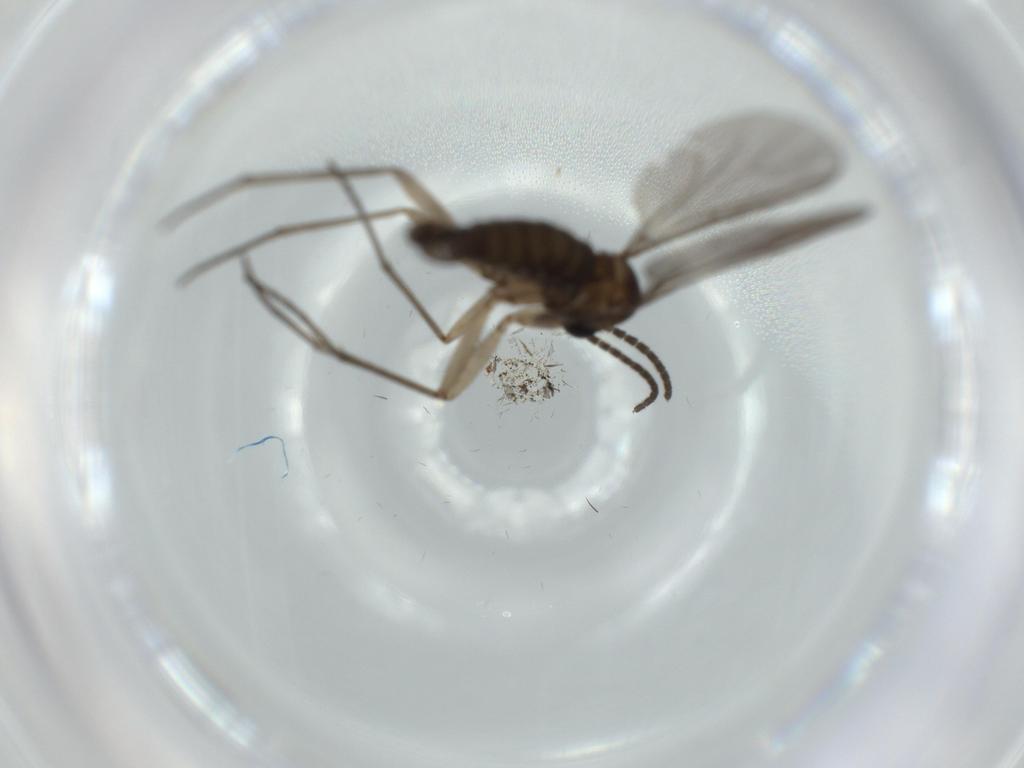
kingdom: Animalia
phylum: Arthropoda
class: Insecta
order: Diptera
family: Sciaridae
